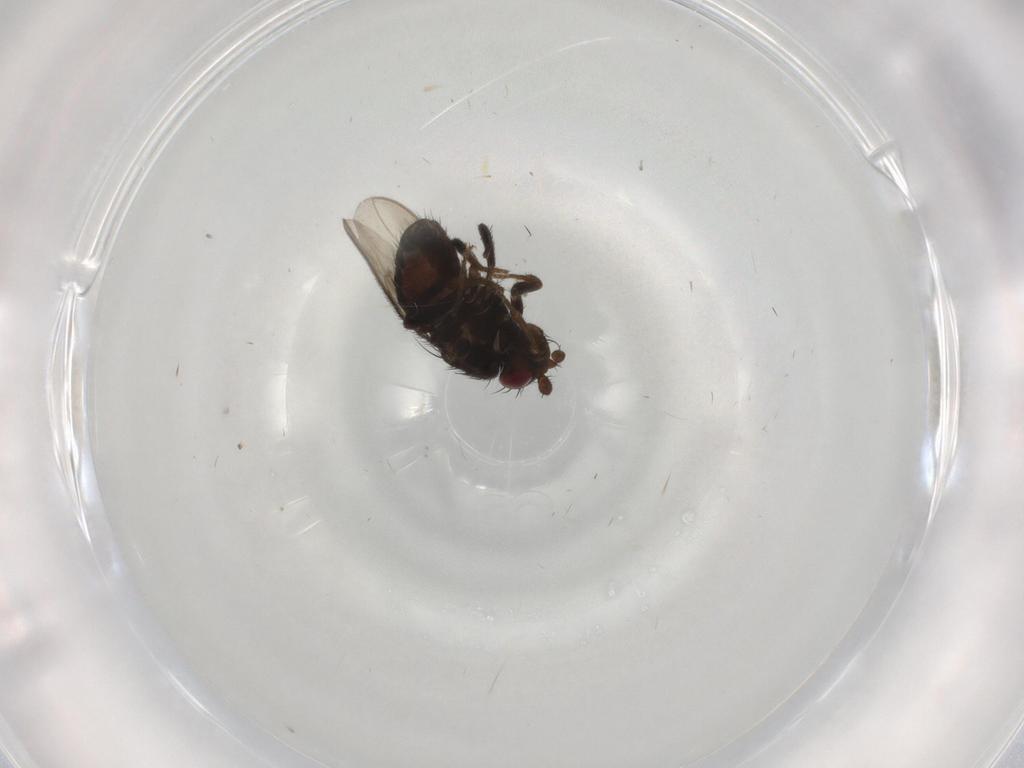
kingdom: Animalia
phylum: Arthropoda
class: Insecta
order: Diptera
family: Sphaeroceridae
